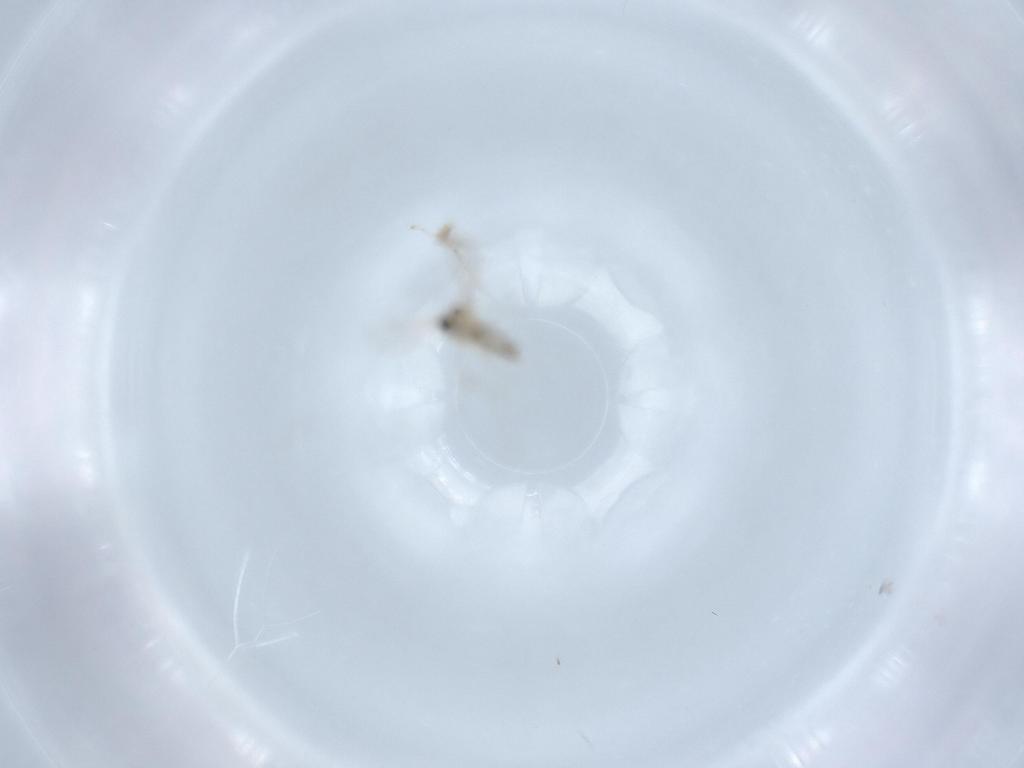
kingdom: Animalia
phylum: Arthropoda
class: Insecta
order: Diptera
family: Cecidomyiidae
